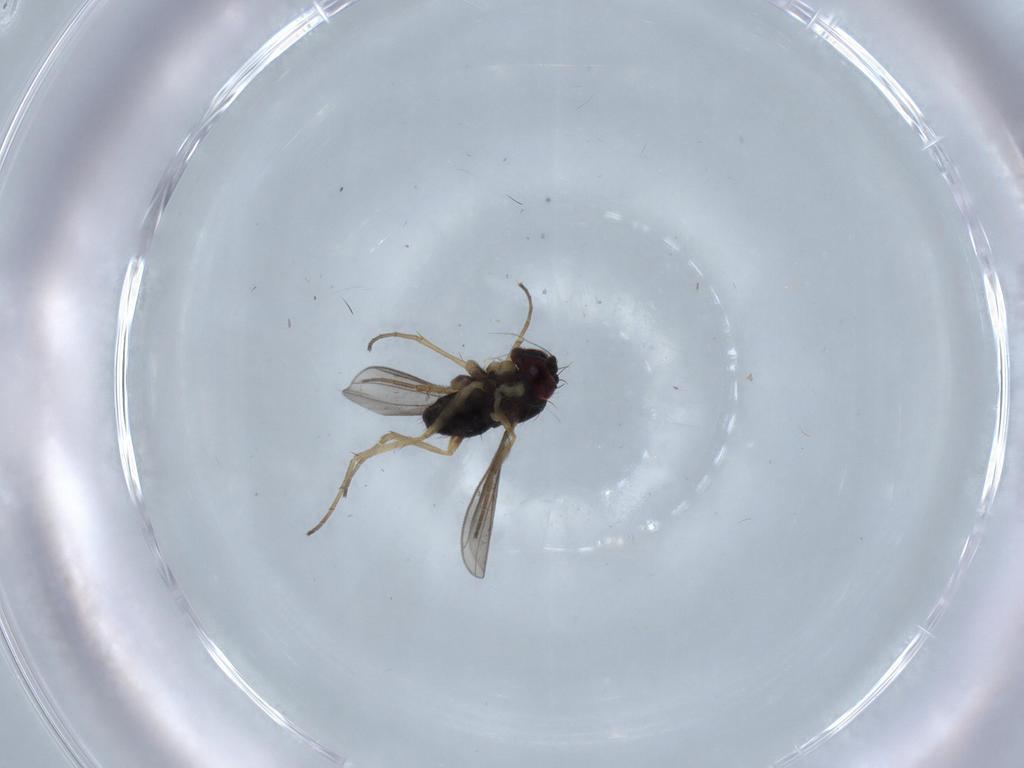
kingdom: Animalia
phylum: Arthropoda
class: Insecta
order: Diptera
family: Dolichopodidae
